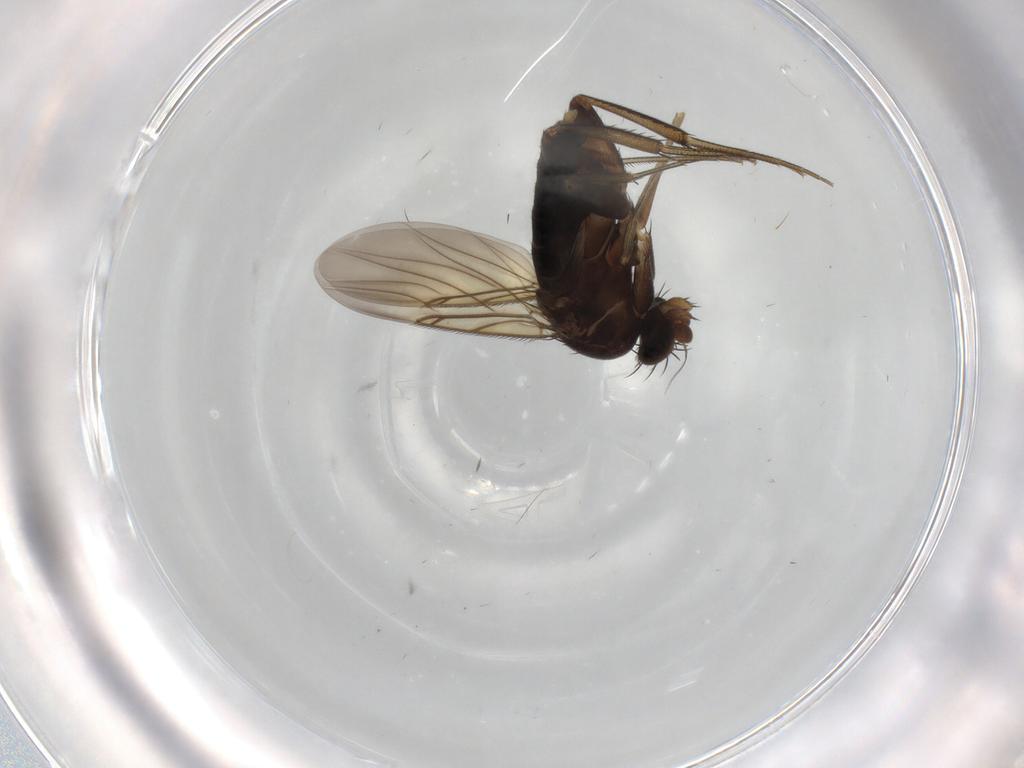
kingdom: Animalia
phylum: Arthropoda
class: Insecta
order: Diptera
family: Phoridae
